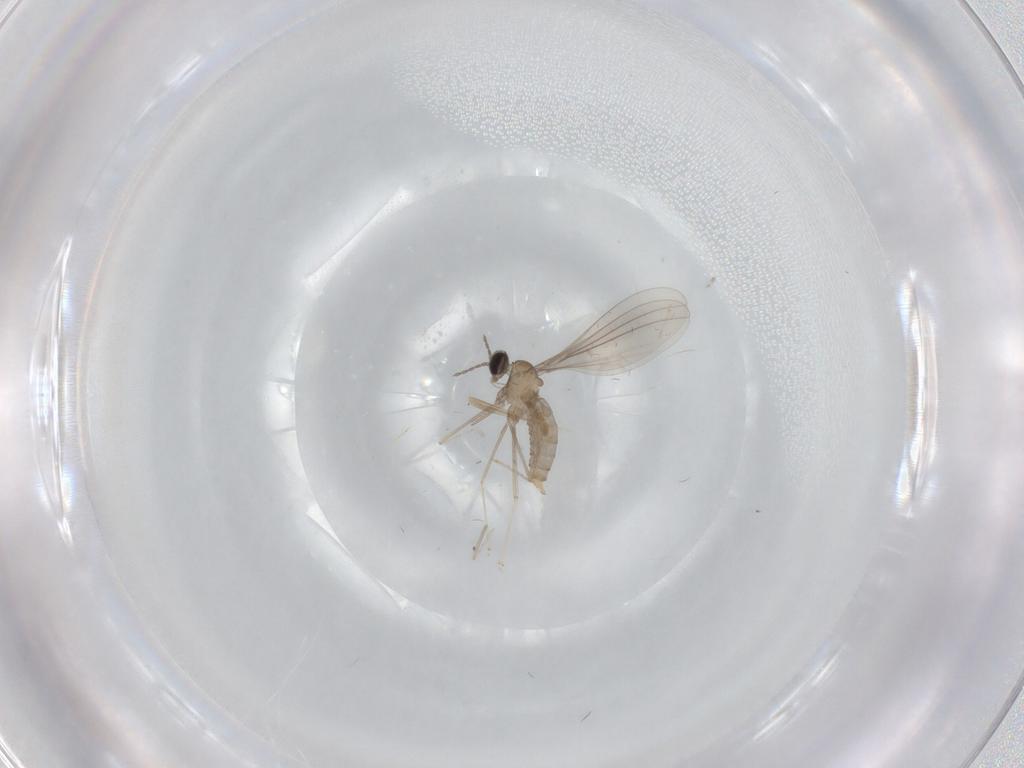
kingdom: Animalia
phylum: Arthropoda
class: Insecta
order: Diptera
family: Cecidomyiidae
